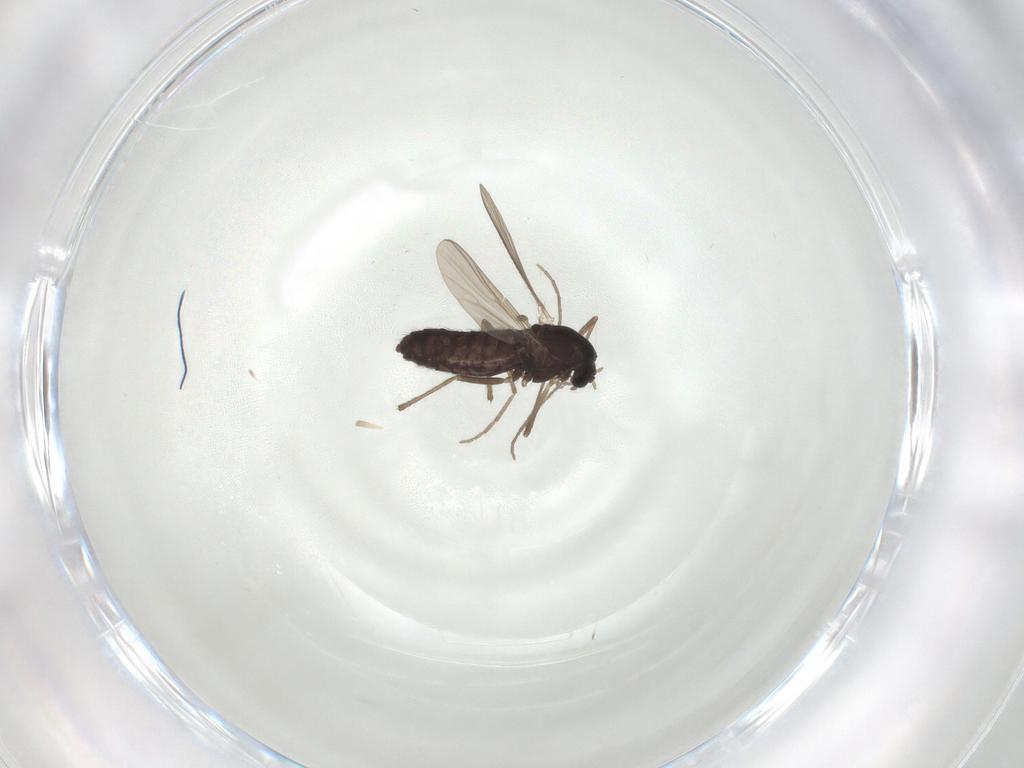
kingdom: Animalia
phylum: Arthropoda
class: Insecta
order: Diptera
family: Chironomidae
